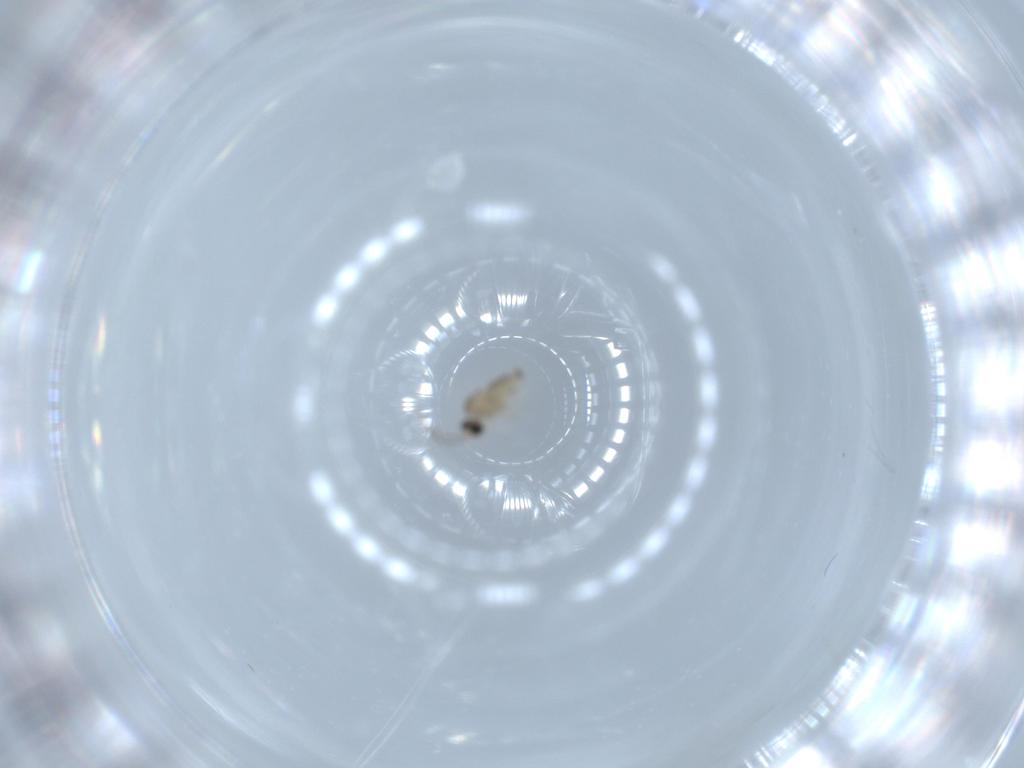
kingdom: Animalia
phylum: Arthropoda
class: Insecta
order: Diptera
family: Cecidomyiidae
